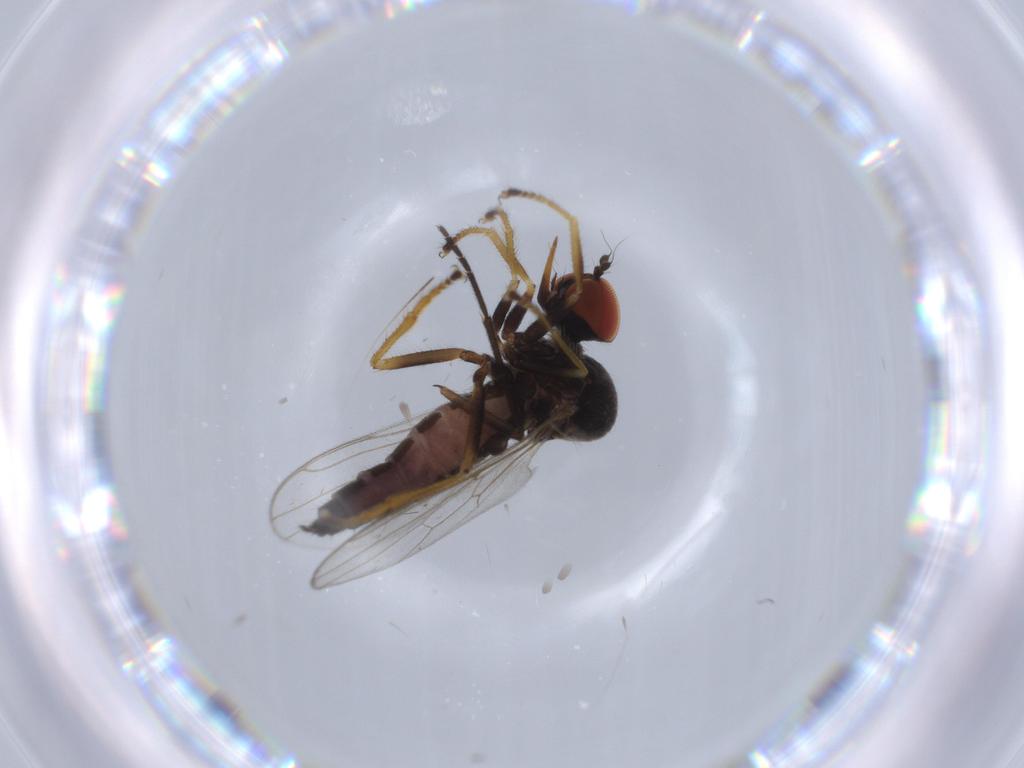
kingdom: Animalia
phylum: Arthropoda
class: Insecta
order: Diptera
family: Cecidomyiidae
